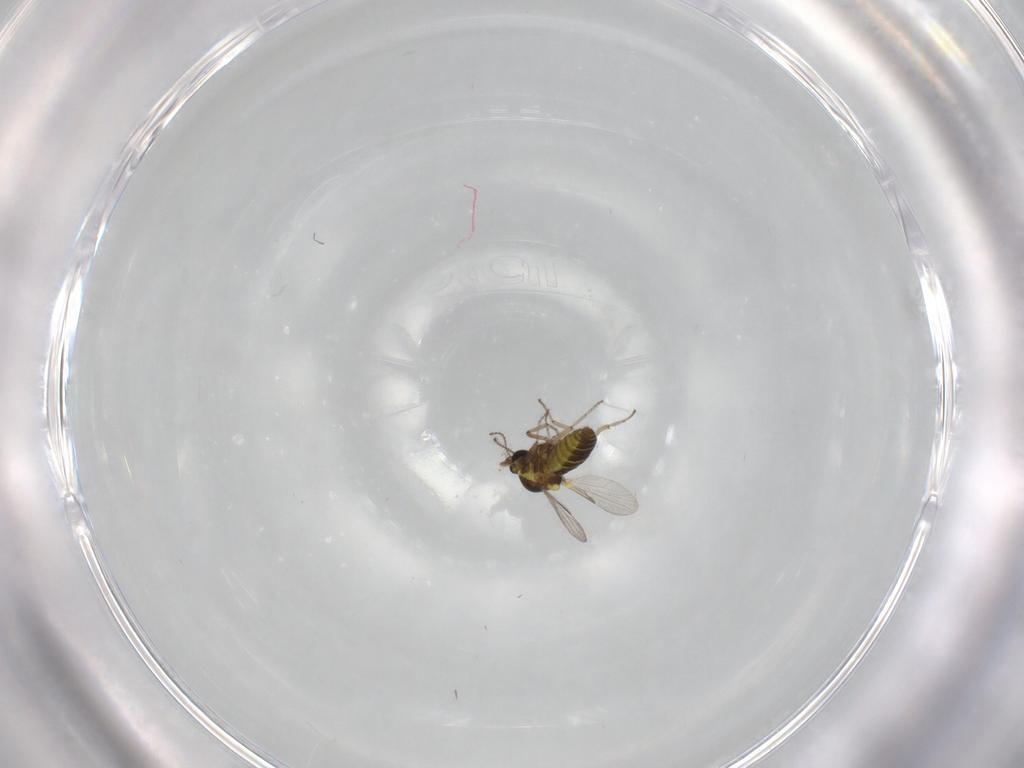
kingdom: Animalia
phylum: Arthropoda
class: Insecta
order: Diptera
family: Ceratopogonidae
